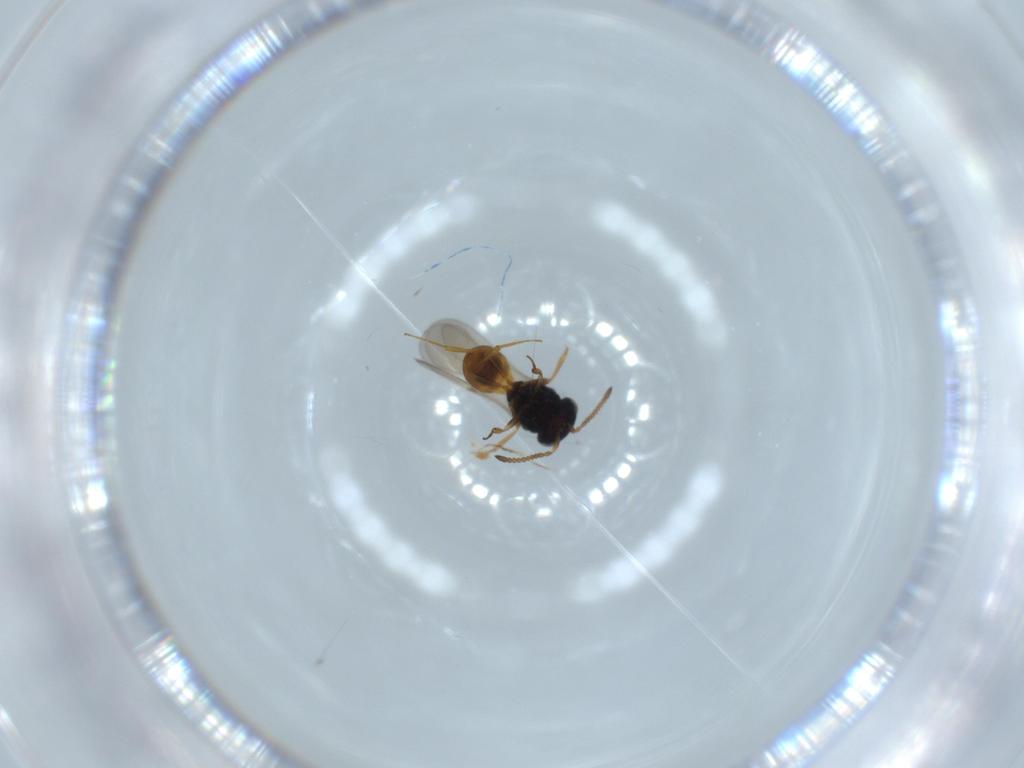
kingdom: Animalia
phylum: Arthropoda
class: Insecta
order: Hymenoptera
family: Scelionidae
